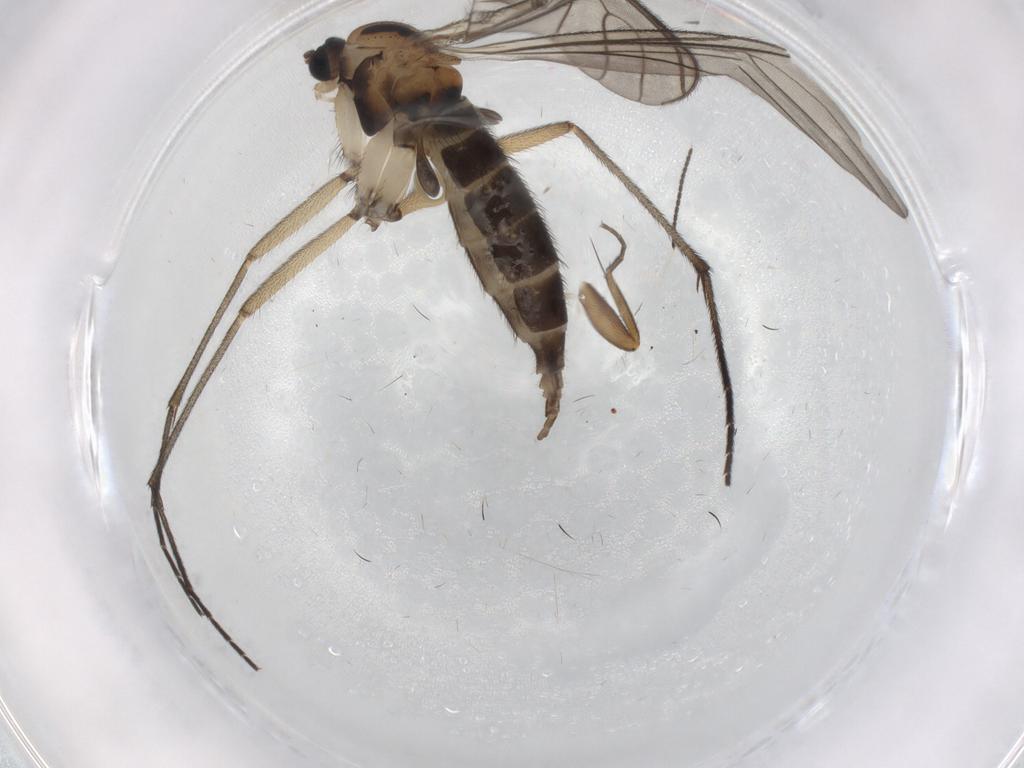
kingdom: Animalia
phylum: Arthropoda
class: Insecta
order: Diptera
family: Sciaridae
